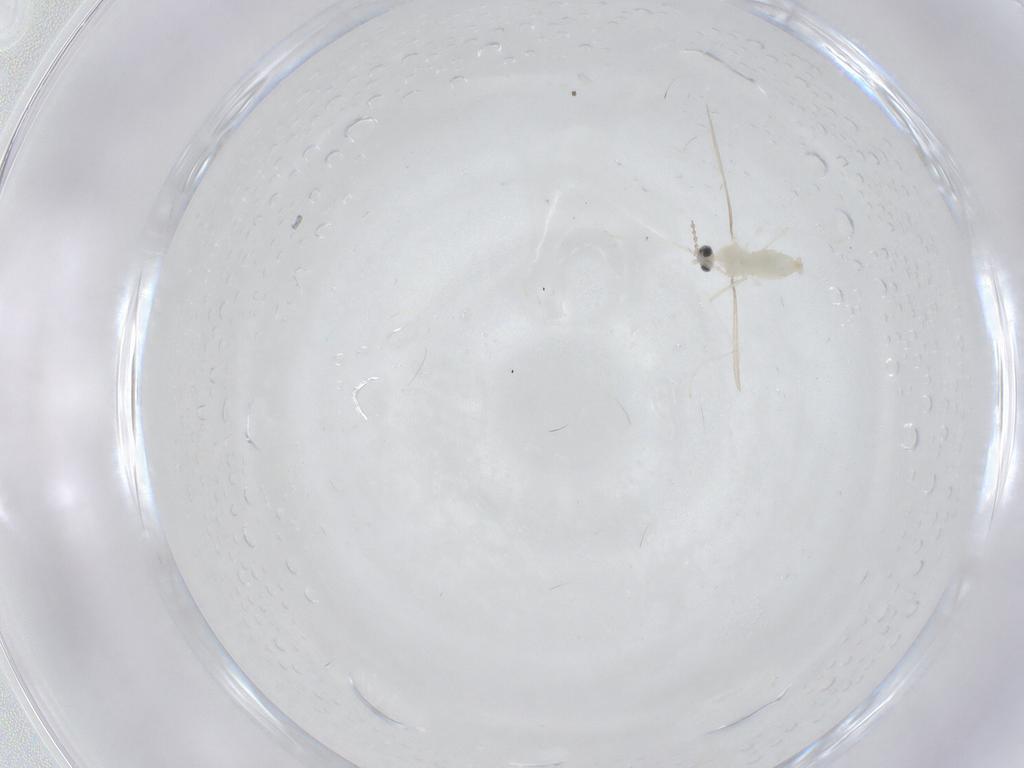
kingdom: Animalia
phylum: Arthropoda
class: Insecta
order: Diptera
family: Cecidomyiidae
